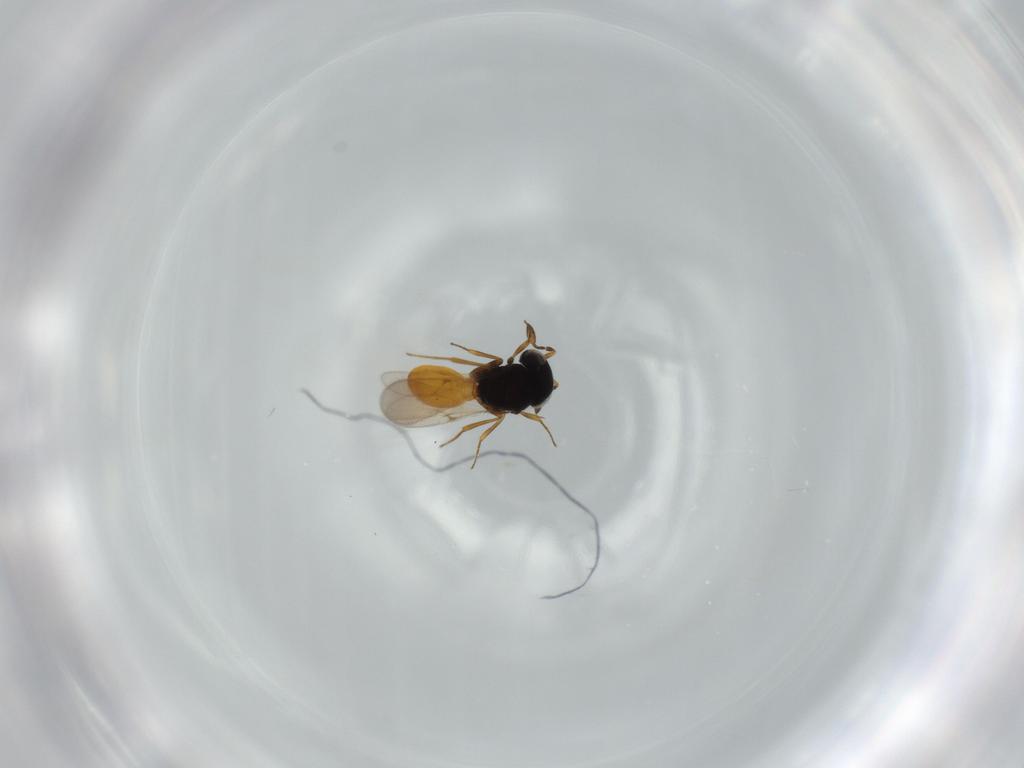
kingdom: Animalia
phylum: Arthropoda
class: Insecta
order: Hymenoptera
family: Scelionidae
